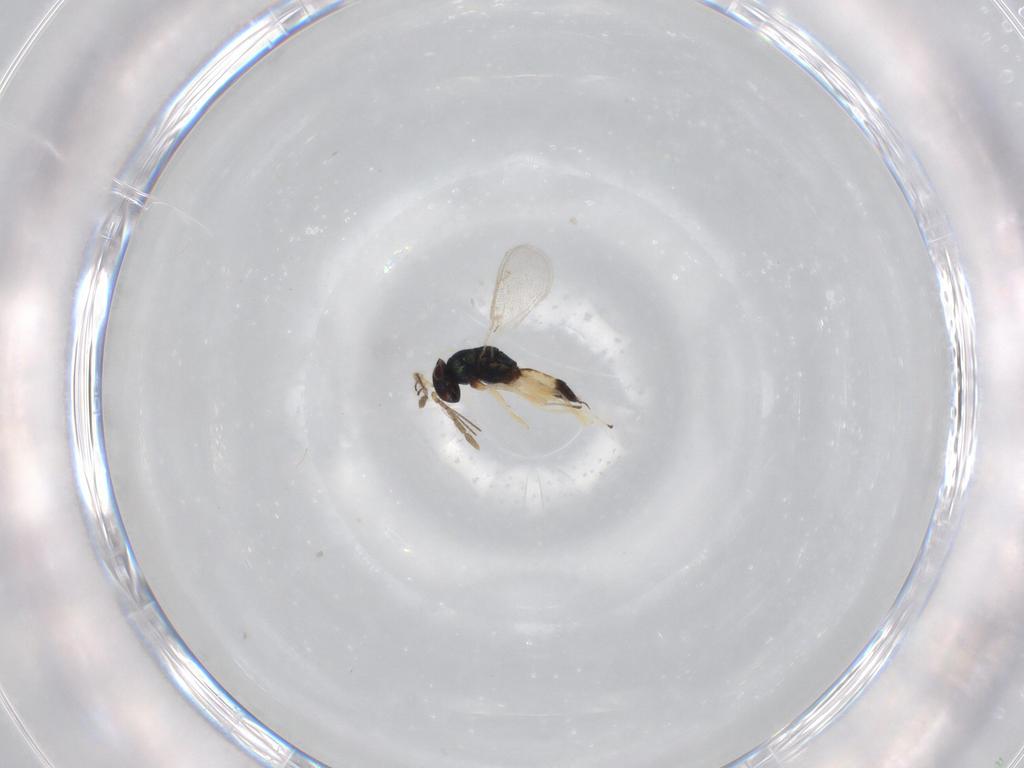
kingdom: Animalia
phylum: Arthropoda
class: Insecta
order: Hymenoptera
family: Eulophidae
